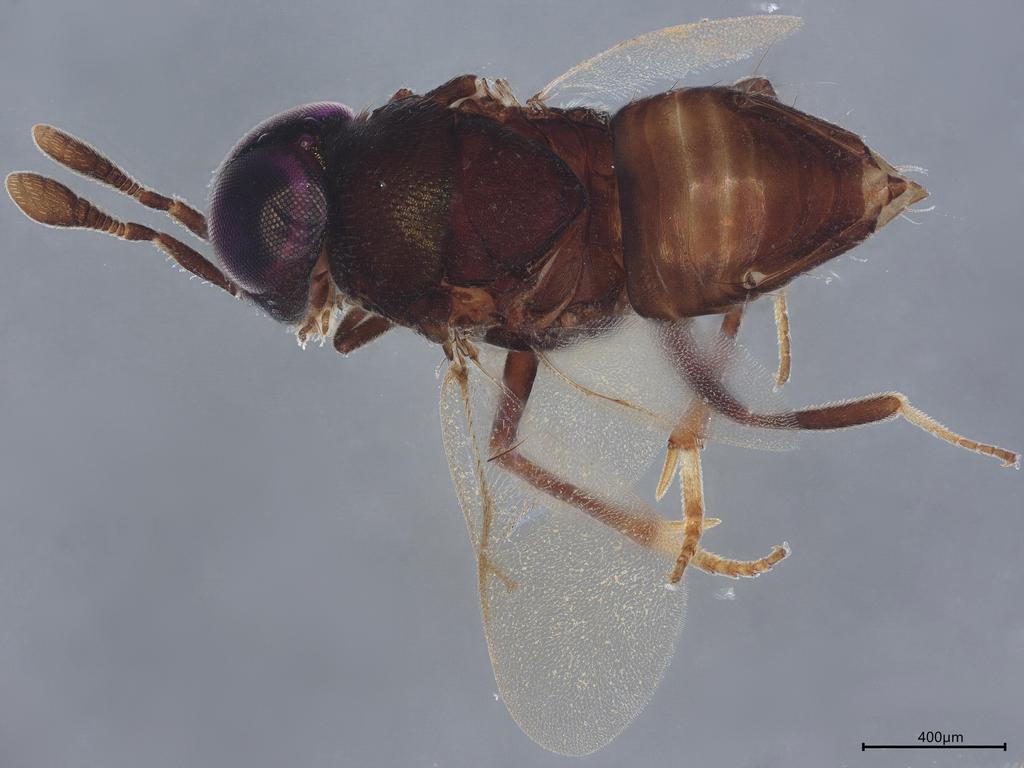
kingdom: Animalia
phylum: Arthropoda
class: Insecta
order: Hymenoptera
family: Encyrtidae
